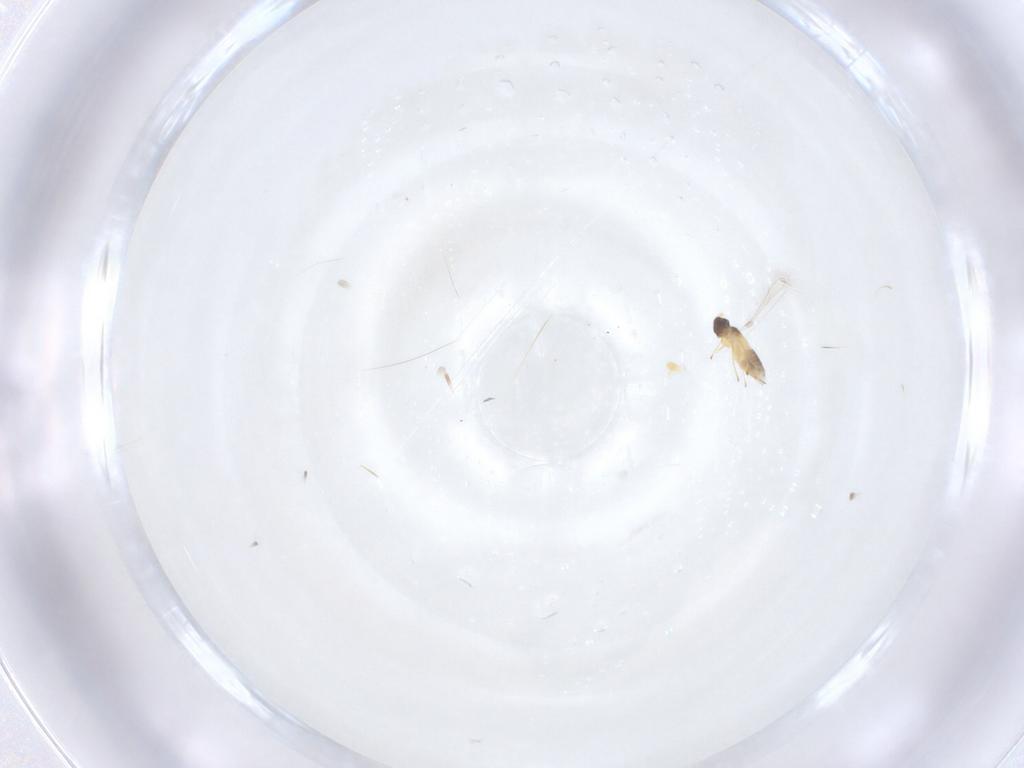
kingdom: Animalia
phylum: Arthropoda
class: Insecta
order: Hymenoptera
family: Mymaridae
